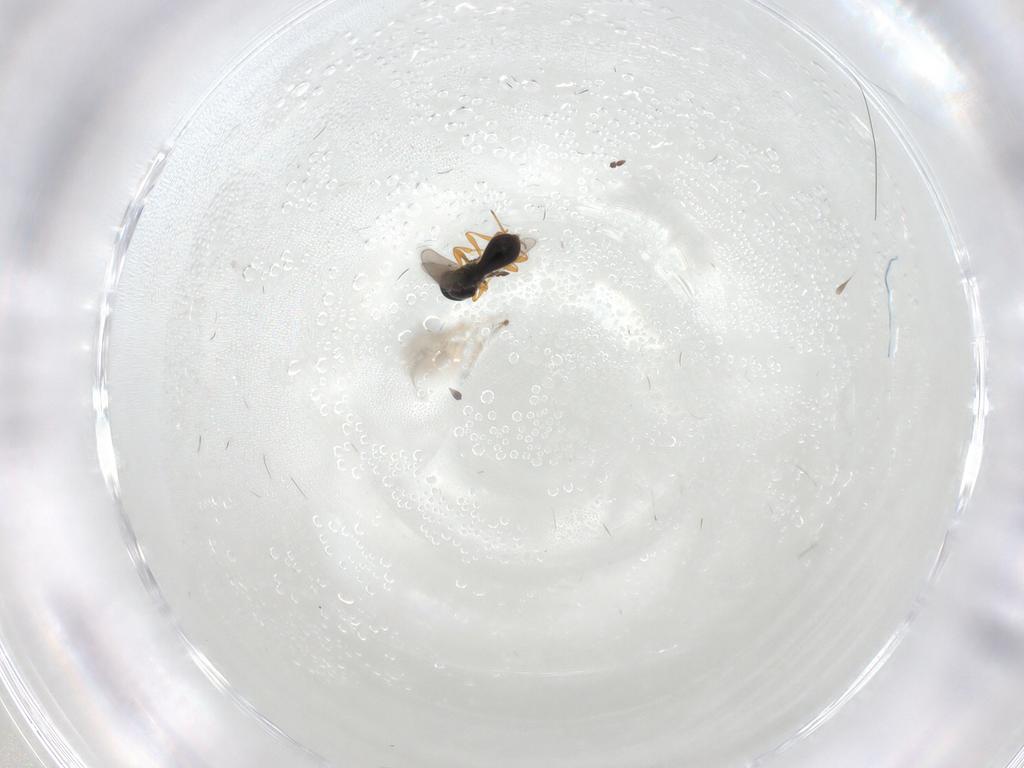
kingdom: Animalia
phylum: Arthropoda
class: Insecta
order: Hymenoptera
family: Platygastridae
